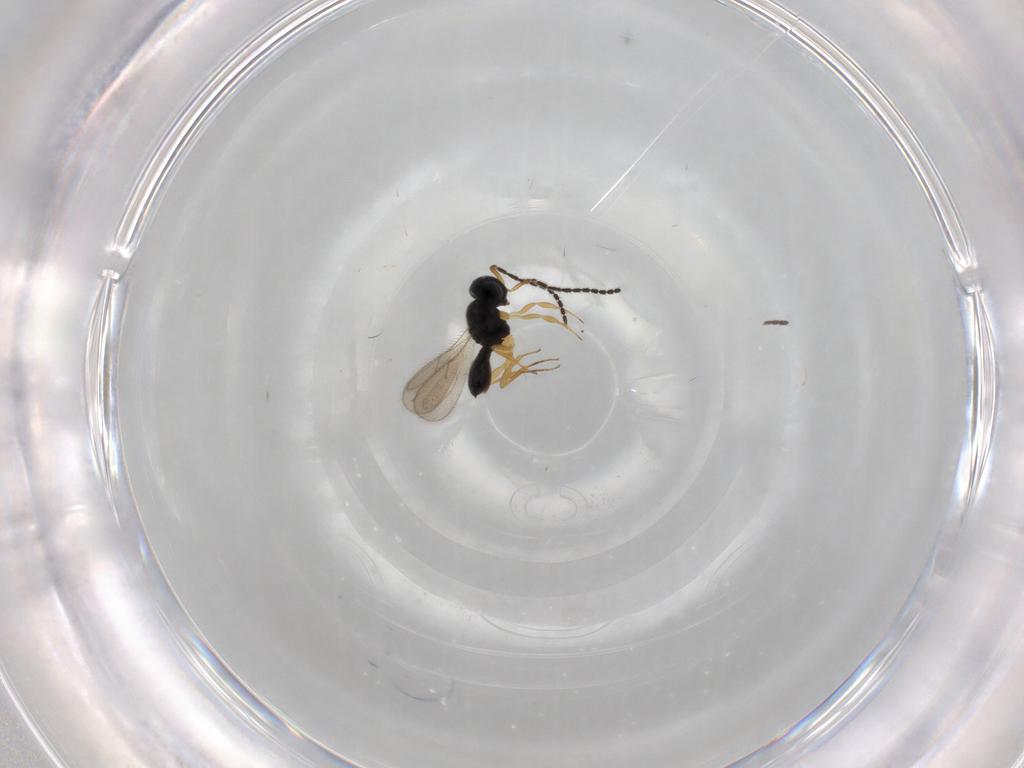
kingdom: Animalia
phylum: Arthropoda
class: Insecta
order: Hymenoptera
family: Scelionidae
